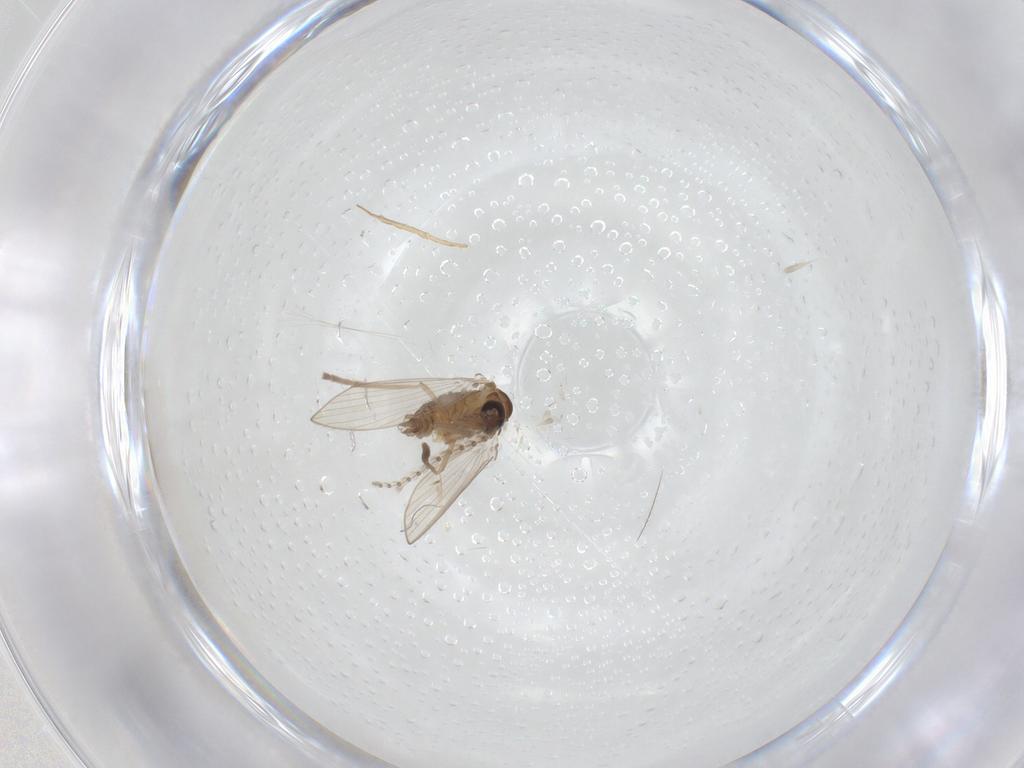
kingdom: Animalia
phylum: Arthropoda
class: Insecta
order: Diptera
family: Psychodidae
